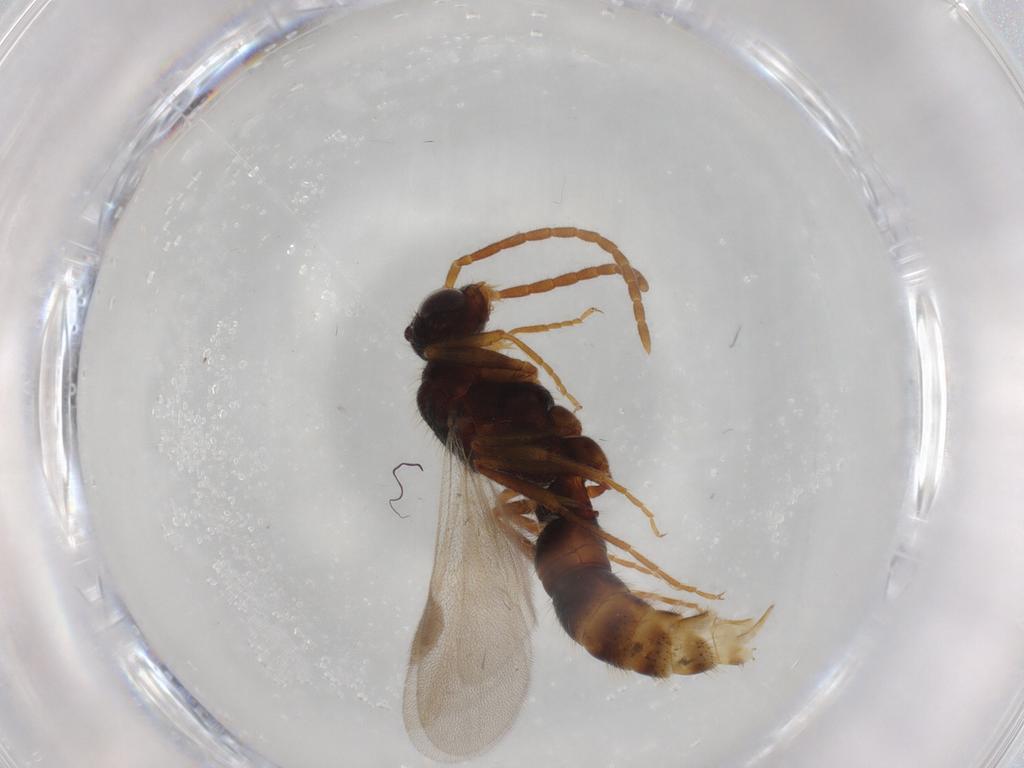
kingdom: Animalia
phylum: Arthropoda
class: Insecta
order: Hymenoptera
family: Formicidae
